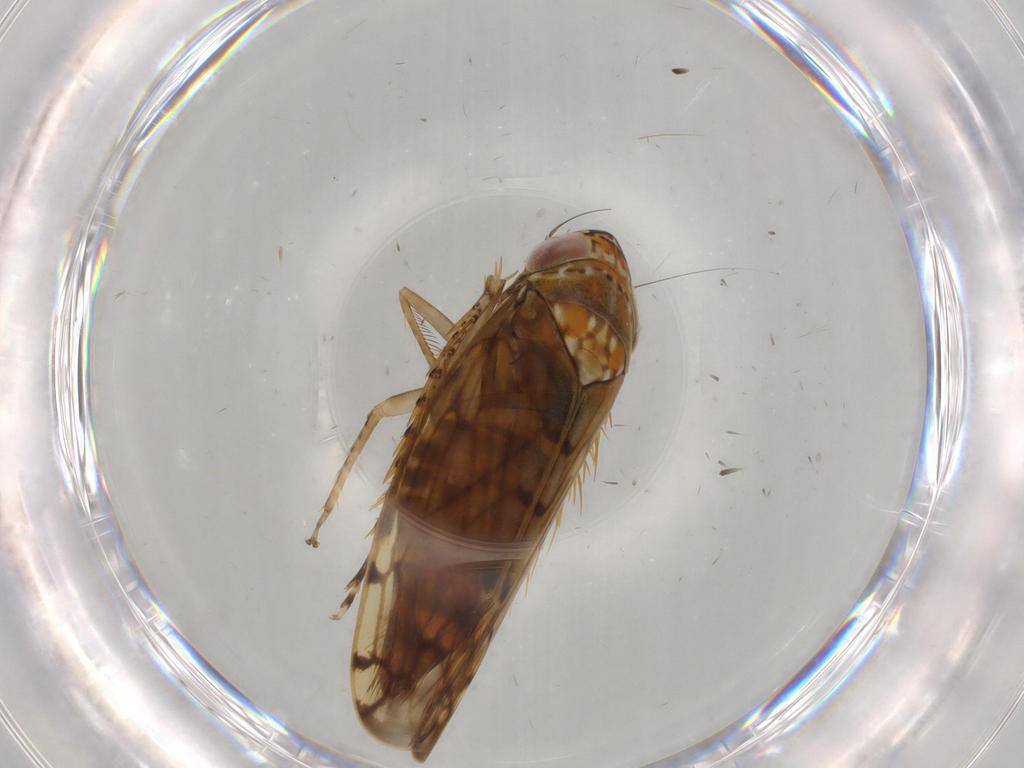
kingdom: Animalia
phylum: Arthropoda
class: Insecta
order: Hemiptera
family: Cicadellidae
